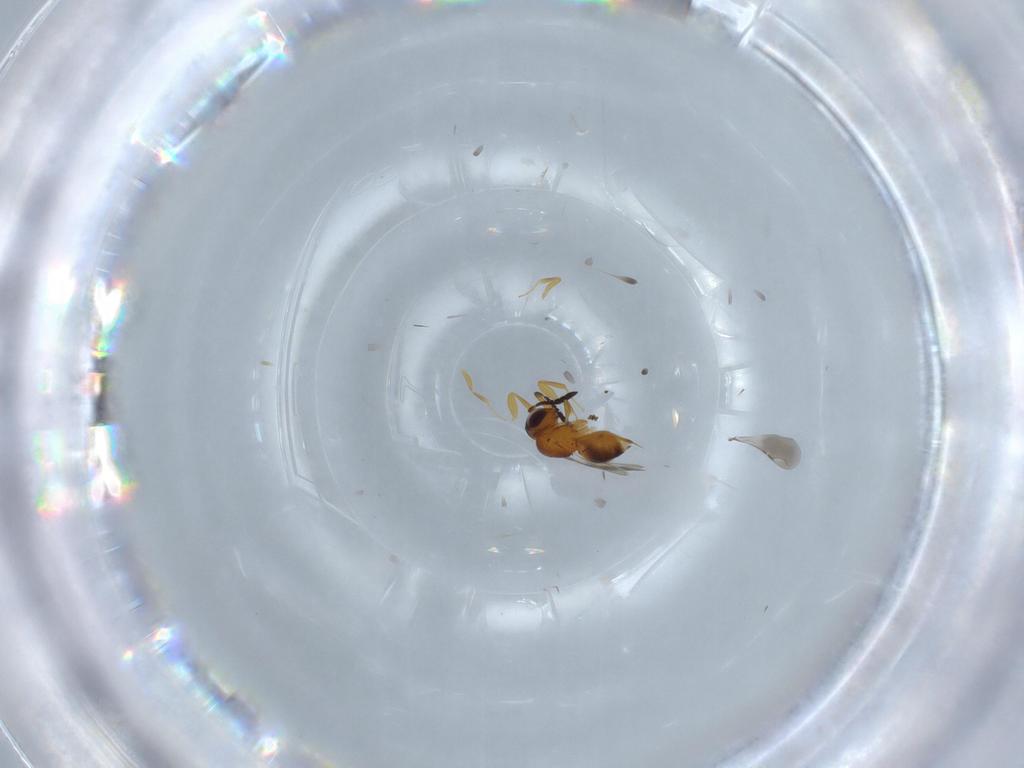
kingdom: Animalia
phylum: Arthropoda
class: Insecta
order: Hymenoptera
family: Ceraphronidae
